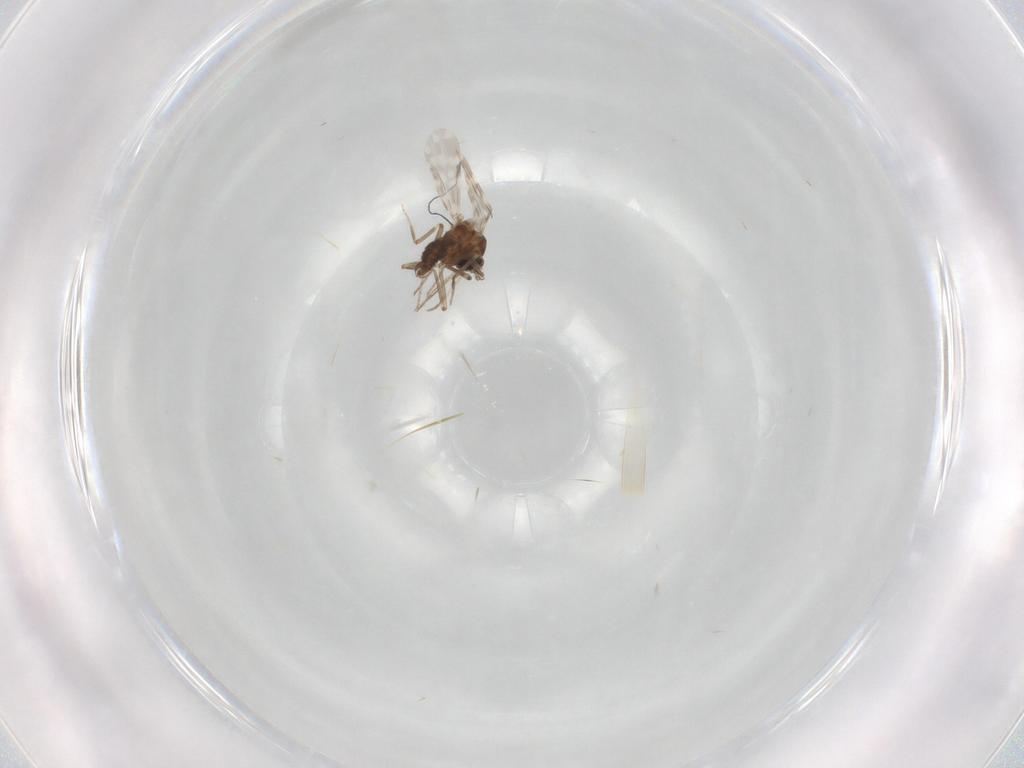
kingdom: Animalia
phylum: Arthropoda
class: Insecta
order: Diptera
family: Ceratopogonidae
